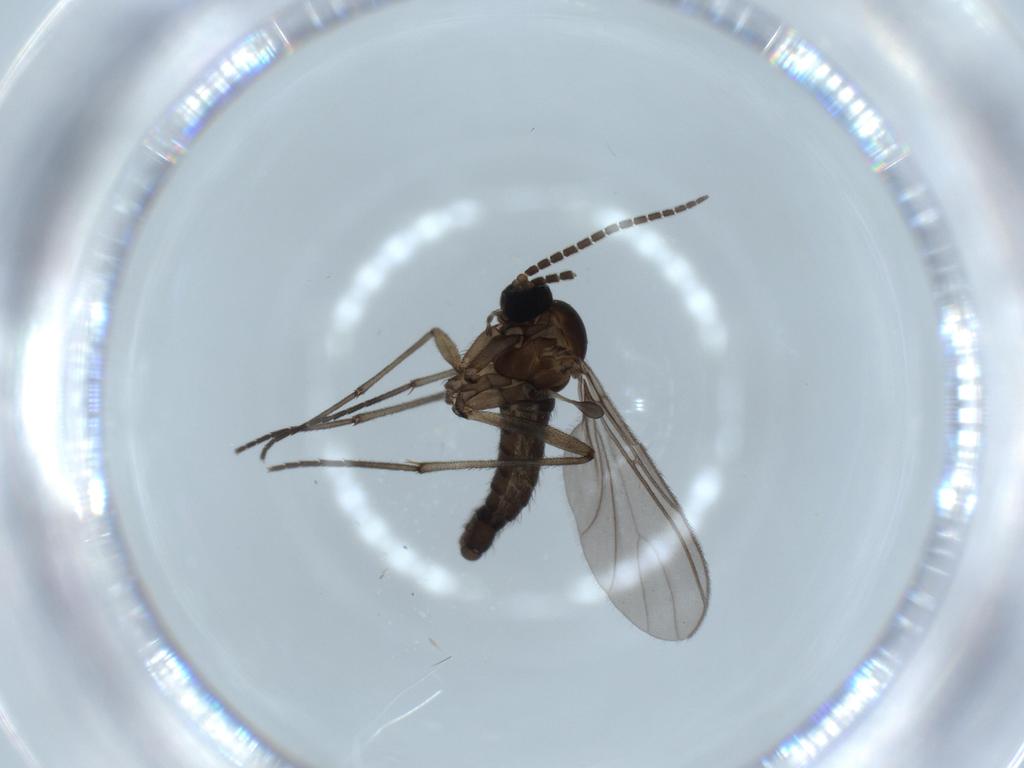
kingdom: Animalia
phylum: Arthropoda
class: Insecta
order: Diptera
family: Sciaridae
